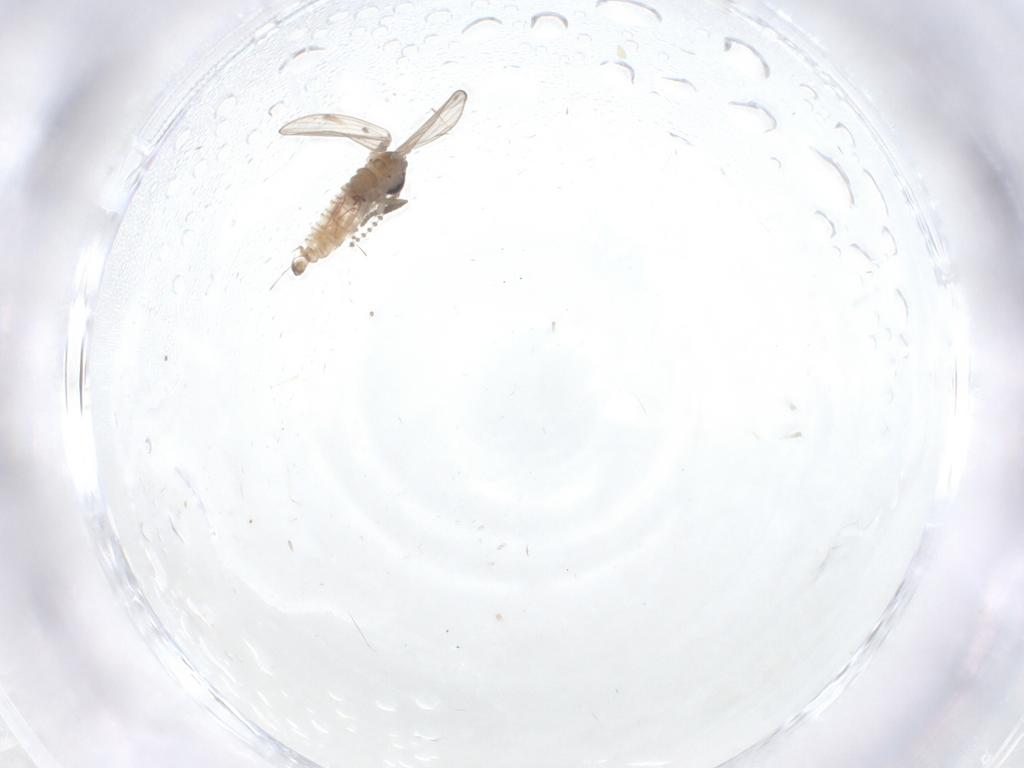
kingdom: Animalia
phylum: Arthropoda
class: Insecta
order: Diptera
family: Psychodidae
